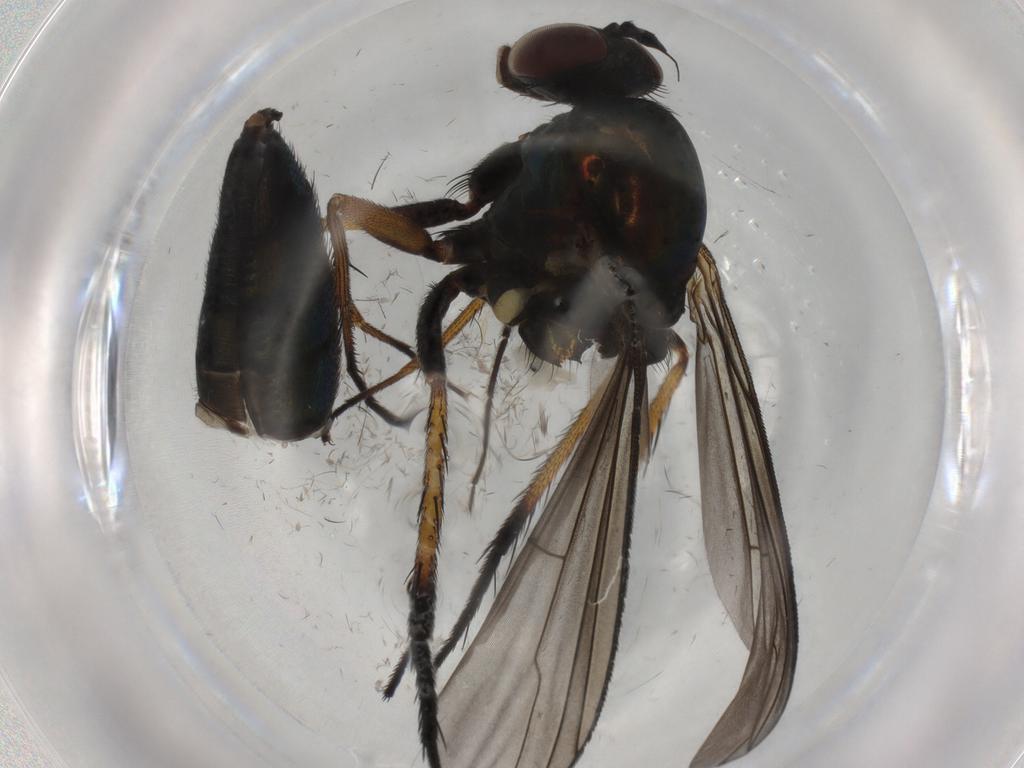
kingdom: Animalia
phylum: Arthropoda
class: Insecta
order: Diptera
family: Chironomidae
